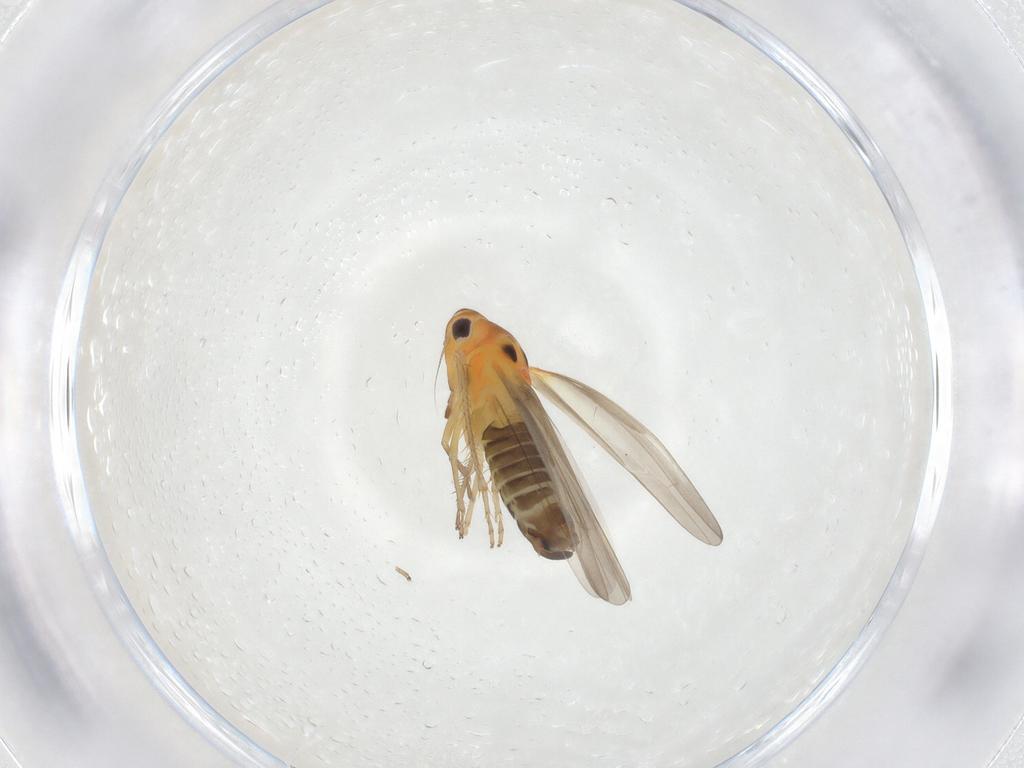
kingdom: Animalia
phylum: Arthropoda
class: Insecta
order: Hemiptera
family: Cicadellidae
